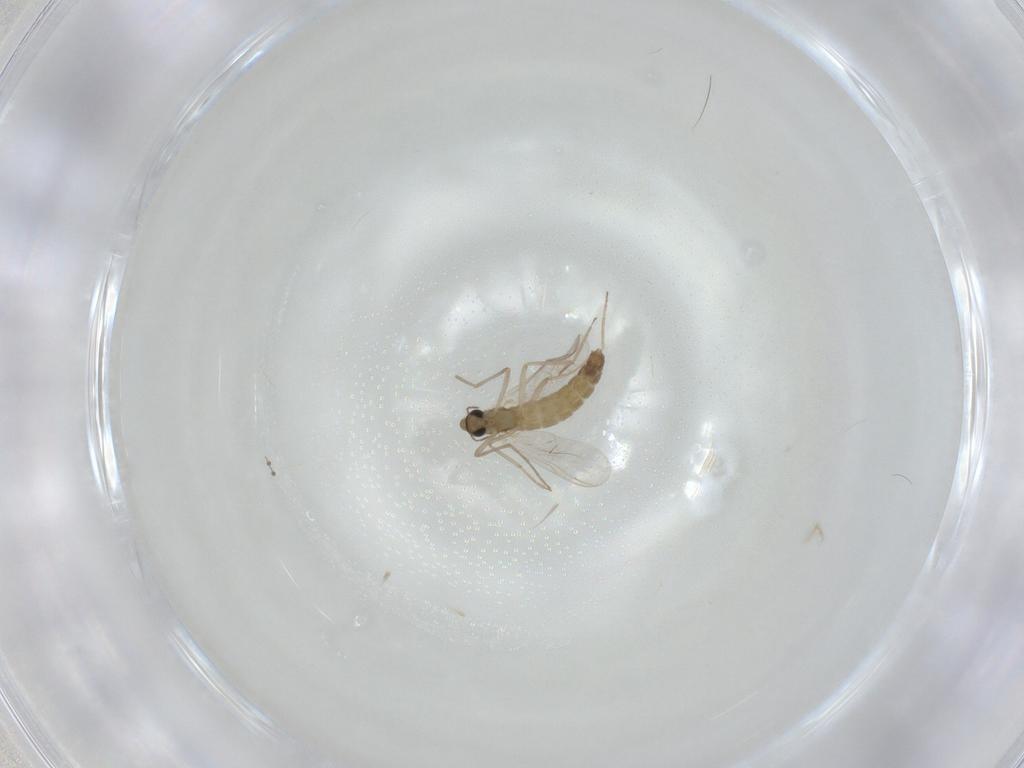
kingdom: Animalia
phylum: Arthropoda
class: Insecta
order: Diptera
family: Chironomidae
